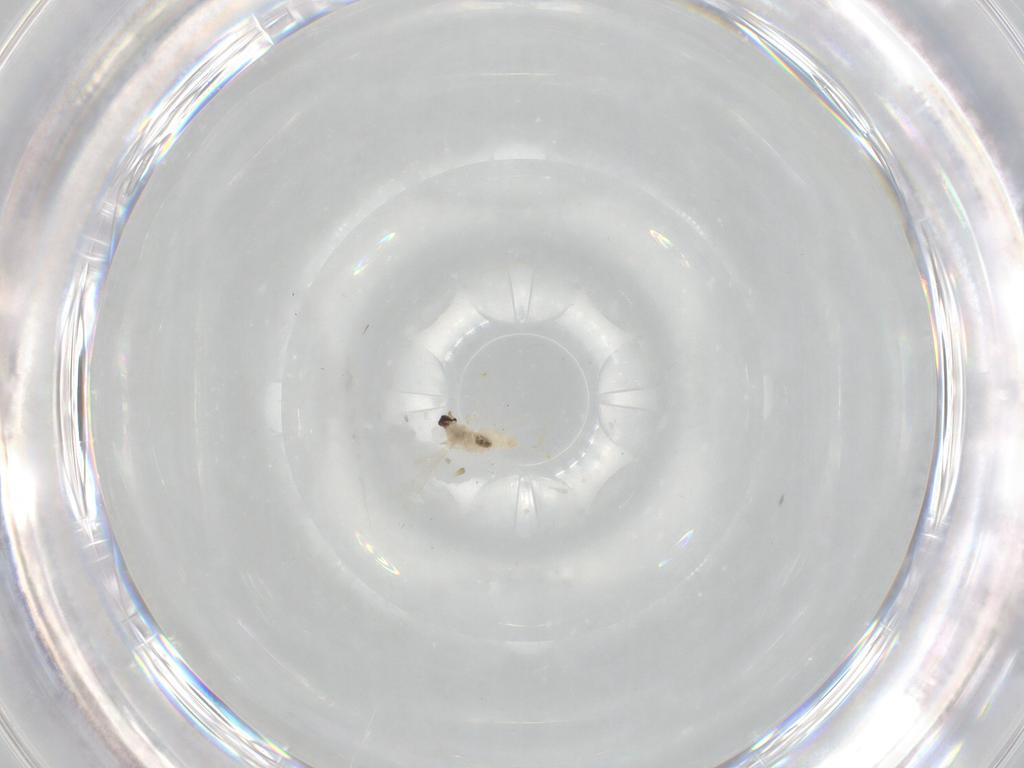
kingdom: Animalia
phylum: Arthropoda
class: Insecta
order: Diptera
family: Cecidomyiidae
